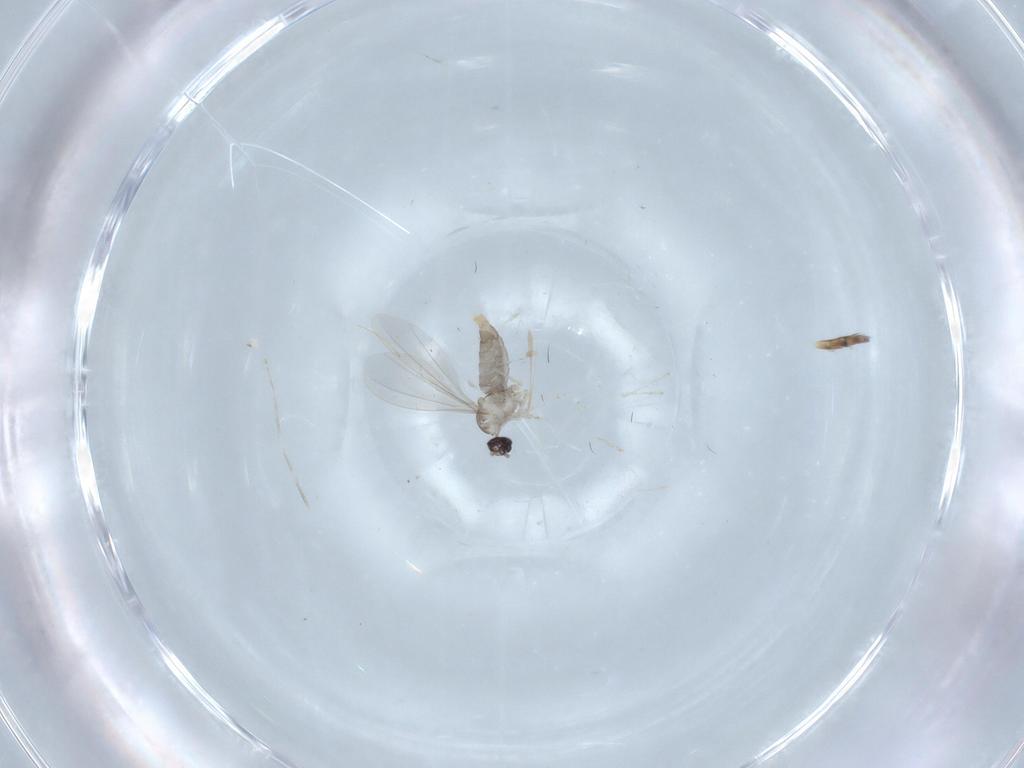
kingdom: Animalia
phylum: Arthropoda
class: Insecta
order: Diptera
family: Cecidomyiidae
